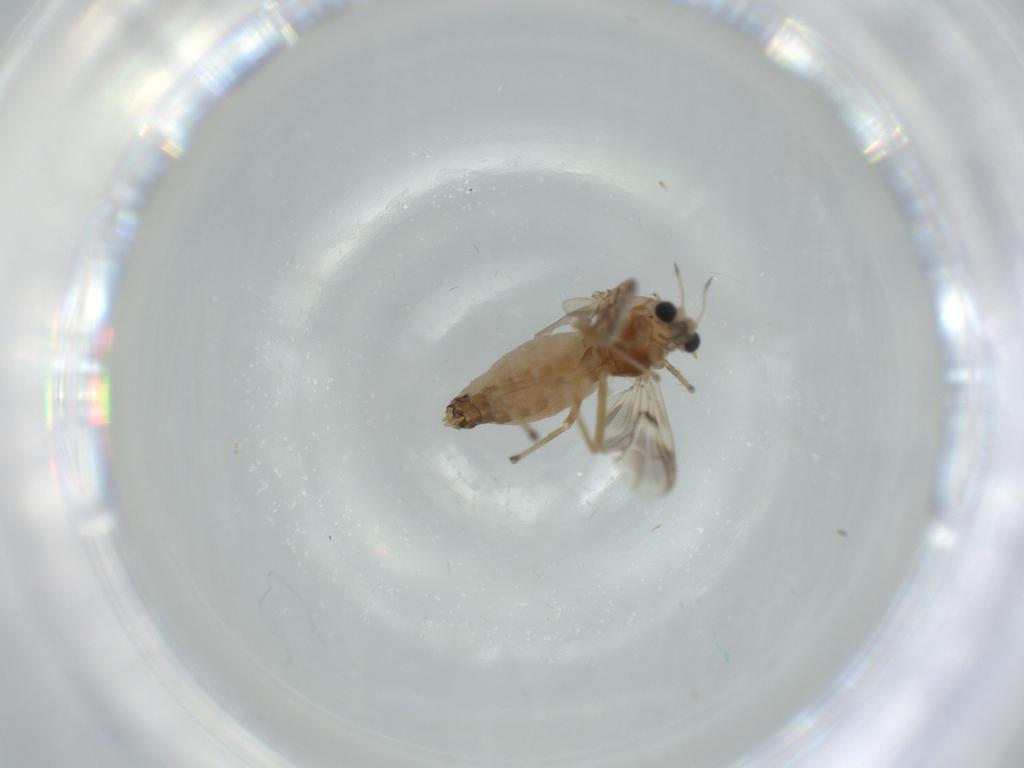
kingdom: Animalia
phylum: Arthropoda
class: Insecta
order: Diptera
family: Chironomidae
